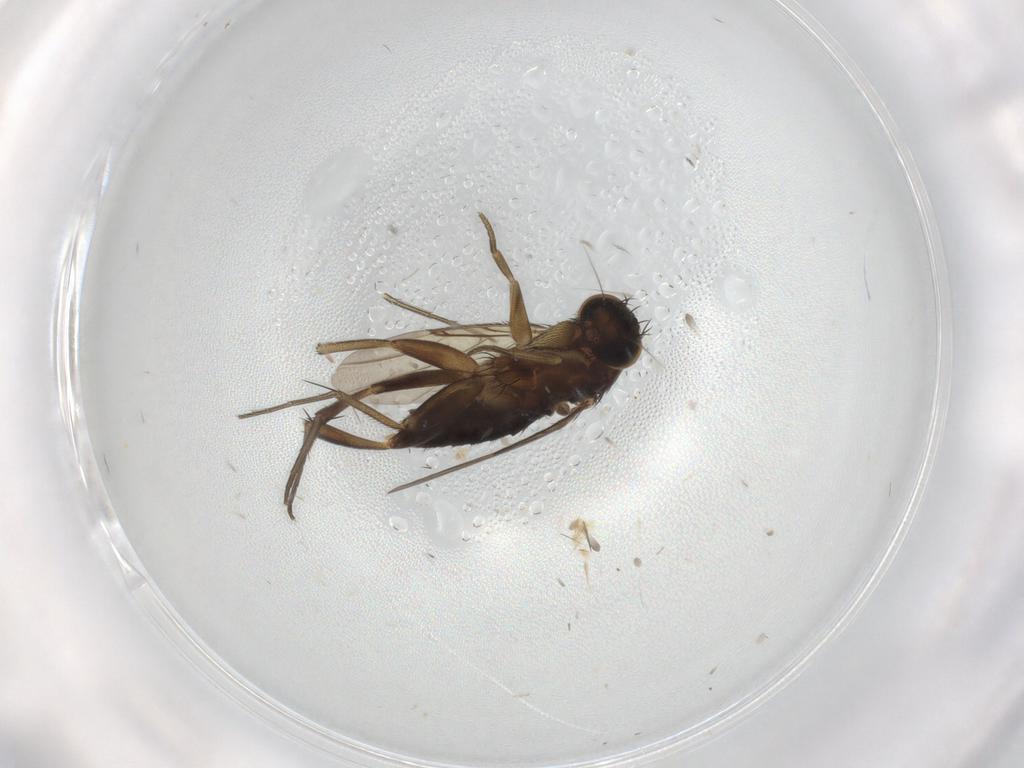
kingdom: Animalia
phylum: Arthropoda
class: Insecta
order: Diptera
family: Phoridae
